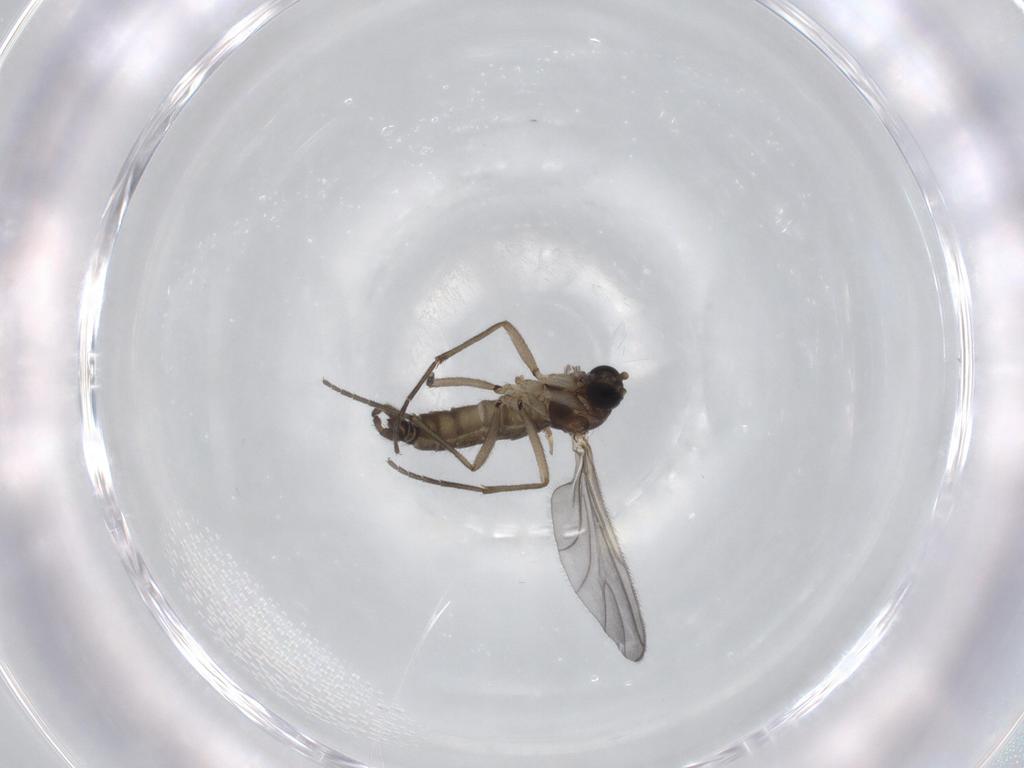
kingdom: Animalia
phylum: Arthropoda
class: Insecta
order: Diptera
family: Sciaridae
